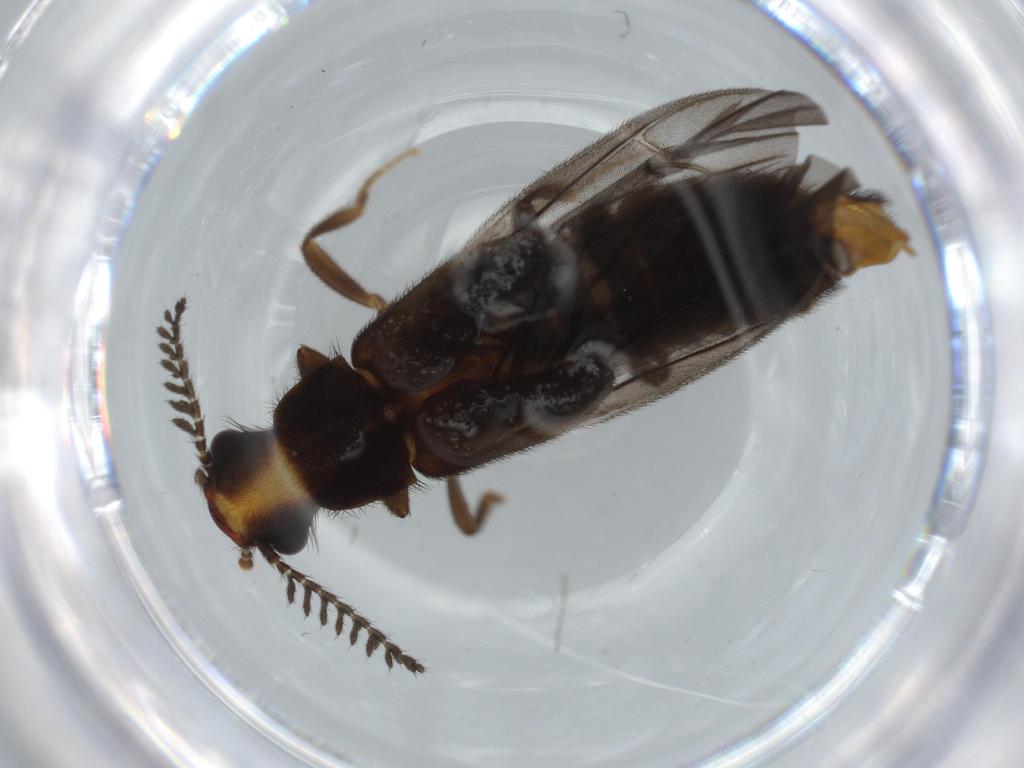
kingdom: Animalia
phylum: Arthropoda
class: Insecta
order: Coleoptera
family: Phengodidae
